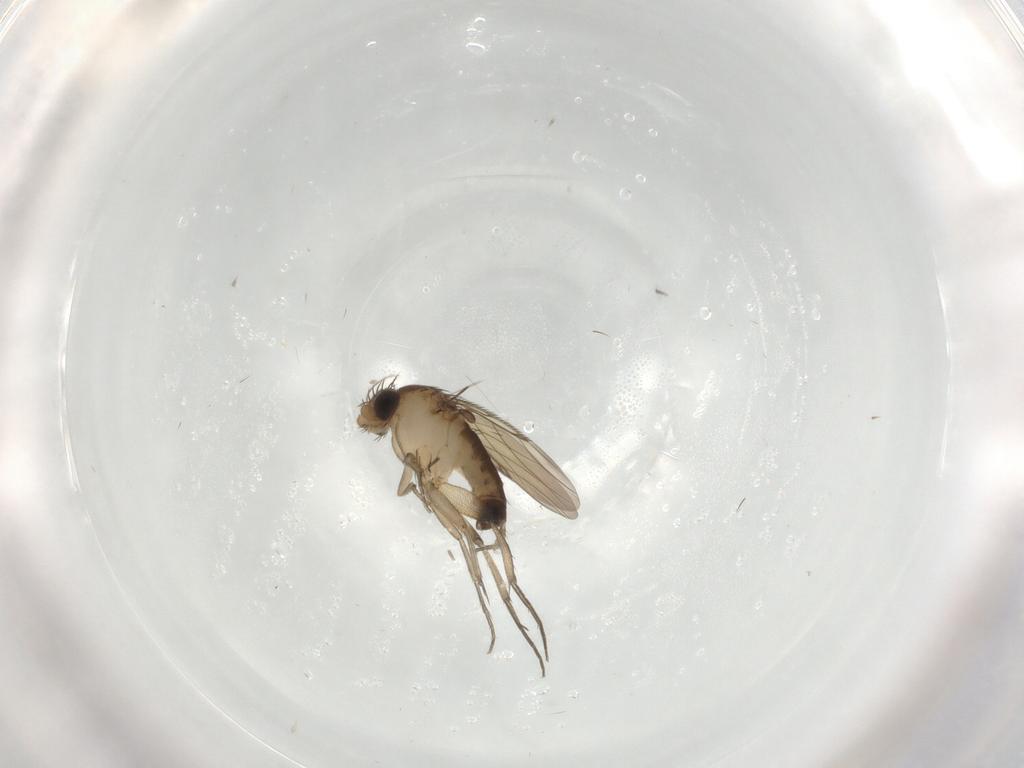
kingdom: Animalia
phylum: Arthropoda
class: Insecta
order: Diptera
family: Phoridae
